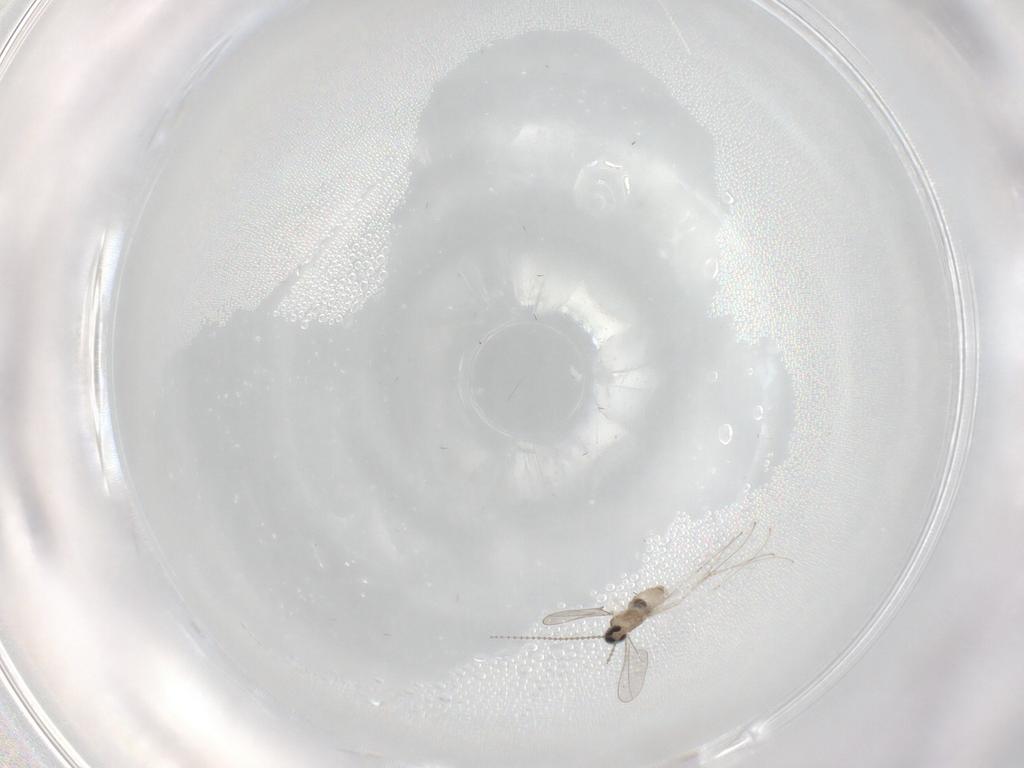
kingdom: Animalia
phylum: Arthropoda
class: Insecta
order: Diptera
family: Cecidomyiidae
